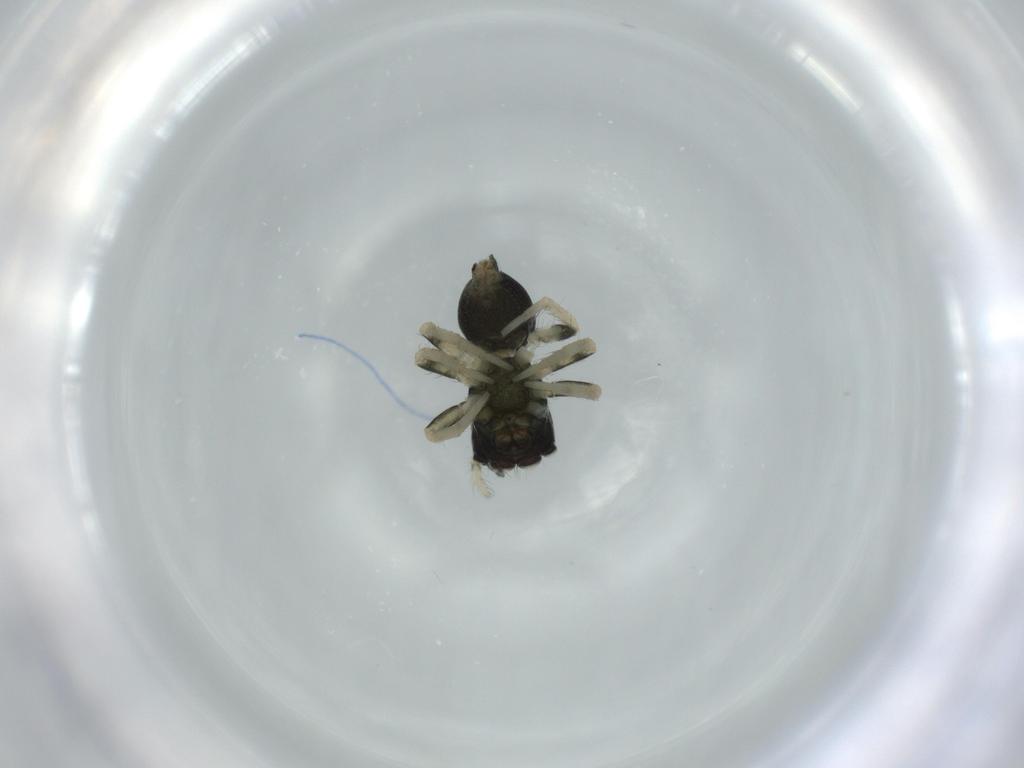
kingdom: Animalia
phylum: Arthropoda
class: Arachnida
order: Araneae
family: Salticidae
